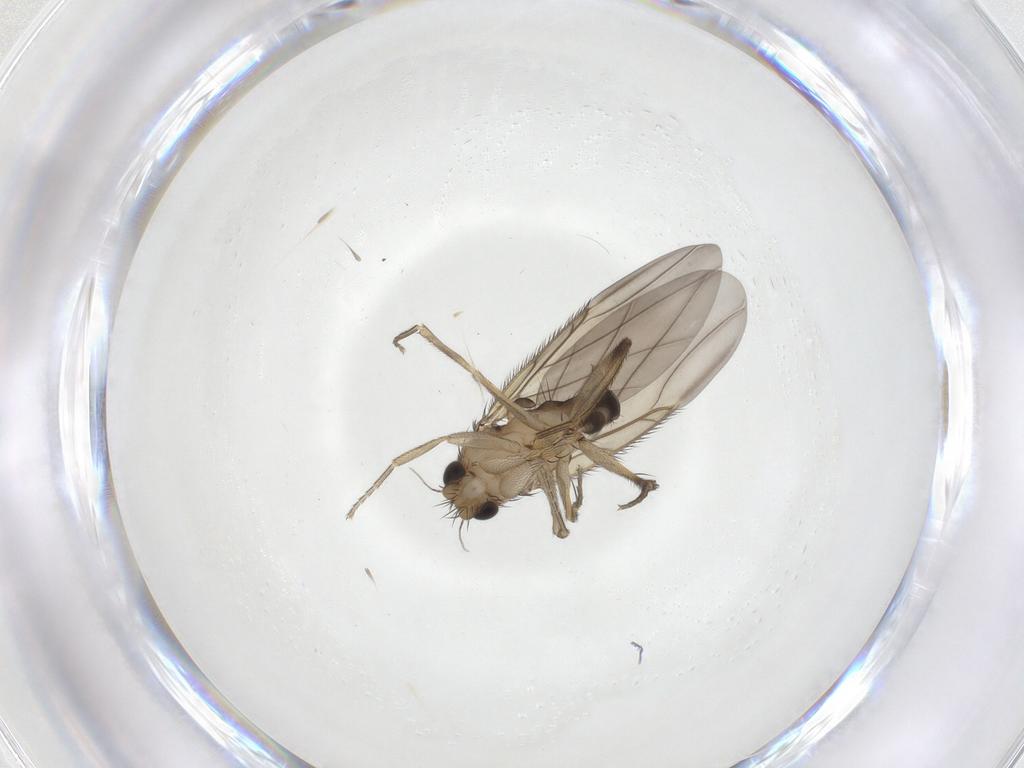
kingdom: Animalia
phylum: Arthropoda
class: Insecta
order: Diptera
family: Phoridae
